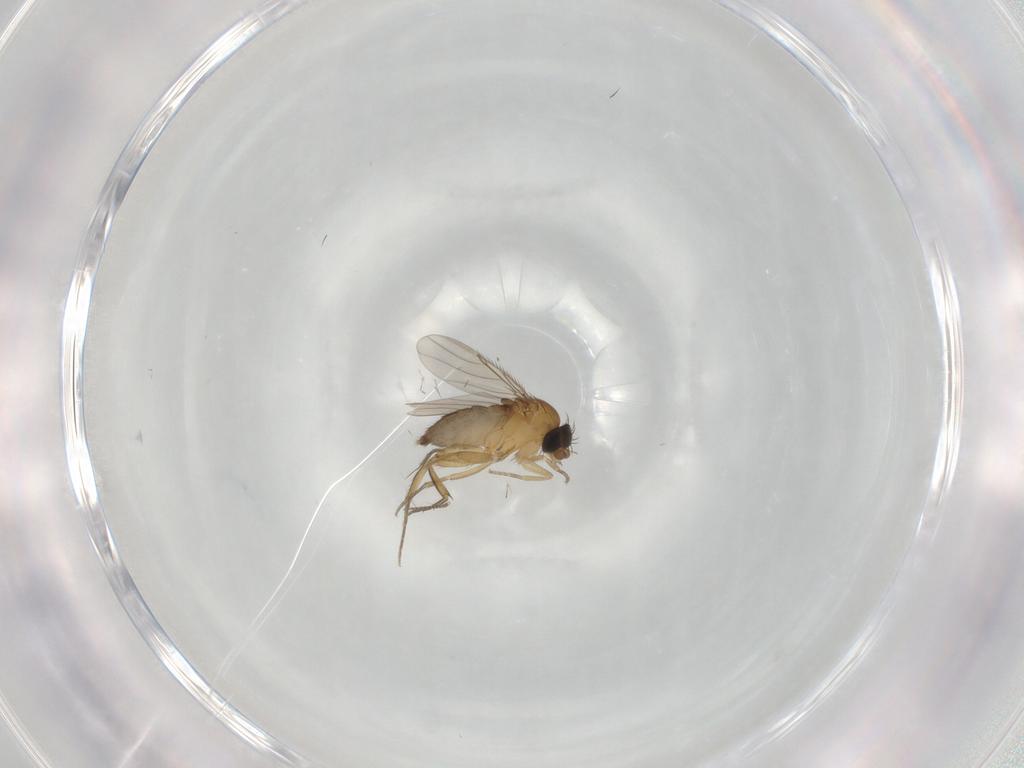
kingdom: Animalia
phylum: Arthropoda
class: Insecta
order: Diptera
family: Phoridae
